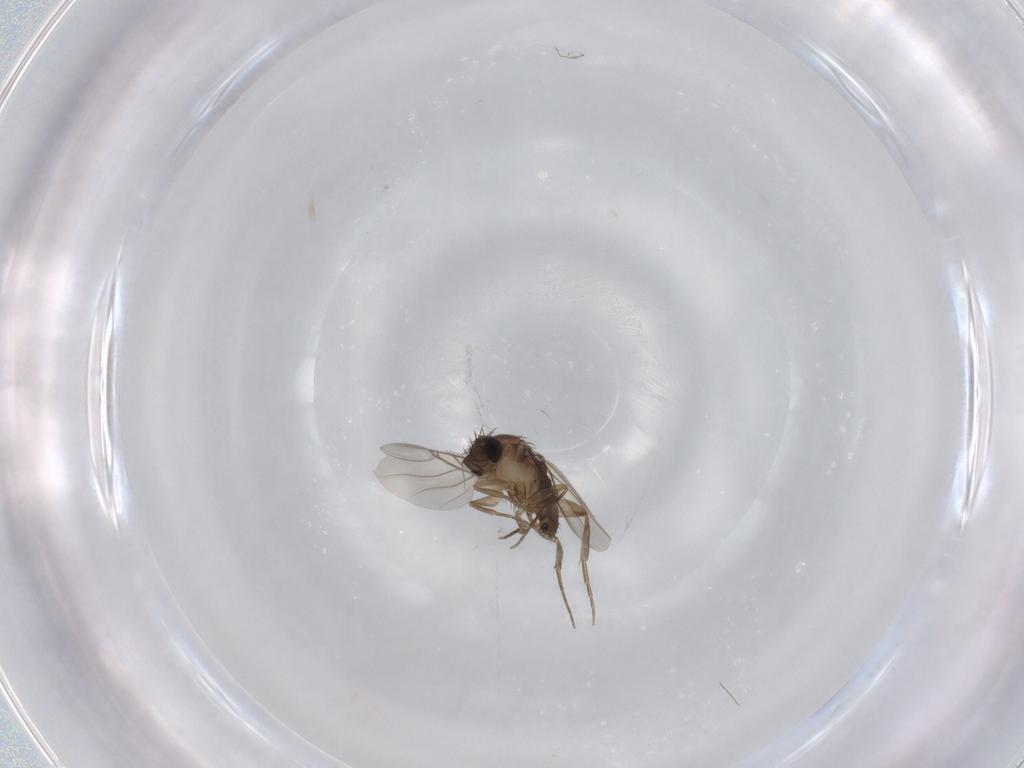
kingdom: Animalia
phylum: Arthropoda
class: Insecta
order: Diptera
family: Phoridae
